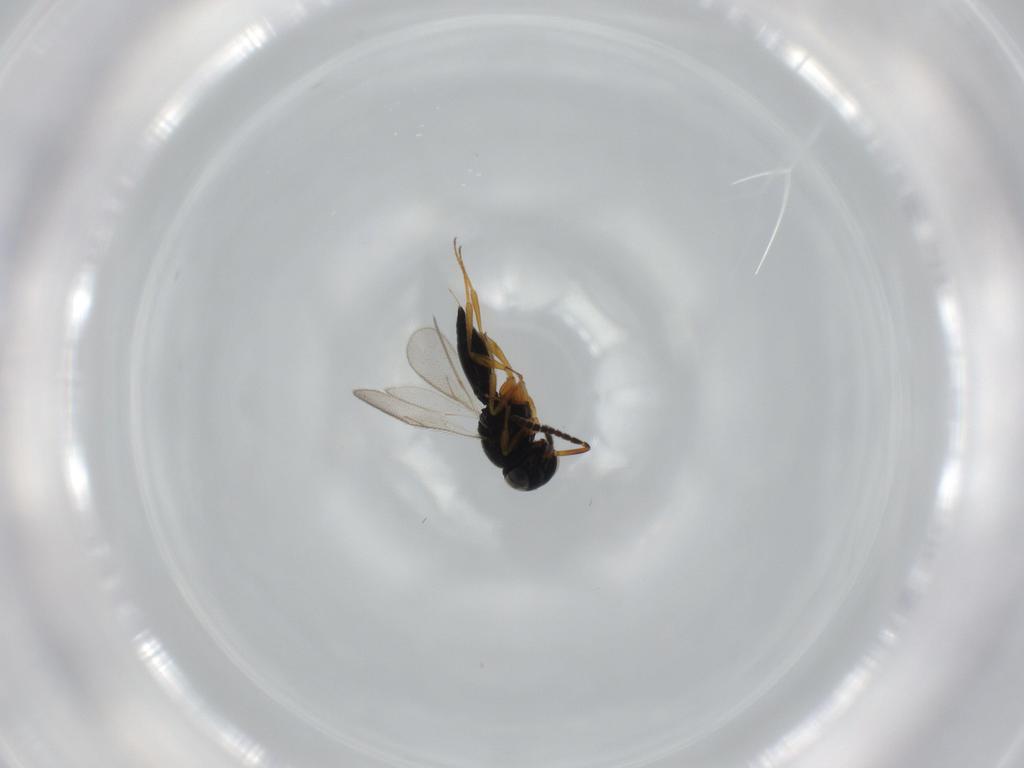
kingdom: Animalia
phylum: Arthropoda
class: Insecta
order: Hymenoptera
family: Scelionidae
